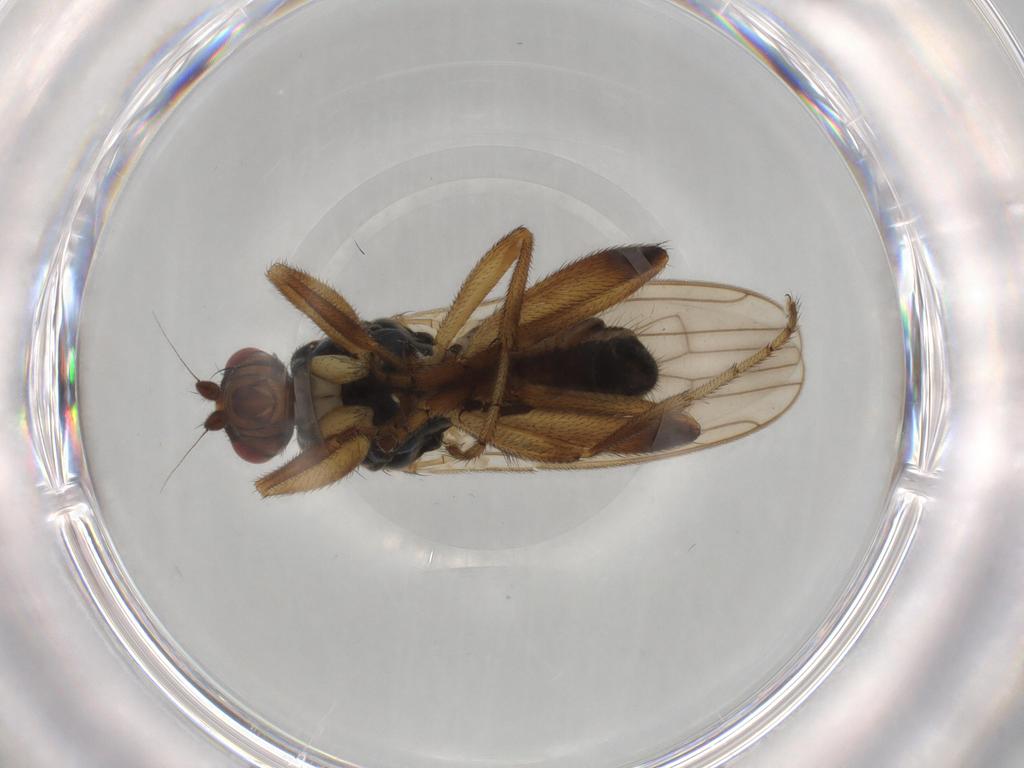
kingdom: Animalia
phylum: Arthropoda
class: Insecta
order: Diptera
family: Sphaeroceridae
